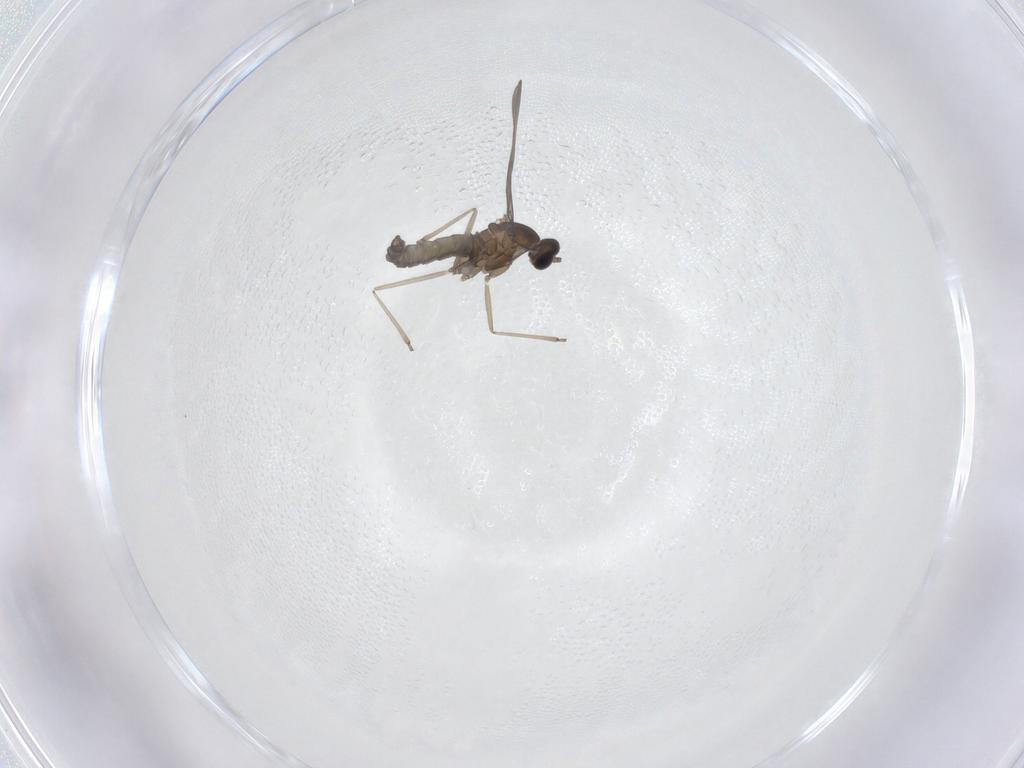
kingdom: Animalia
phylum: Arthropoda
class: Insecta
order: Diptera
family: Cecidomyiidae
